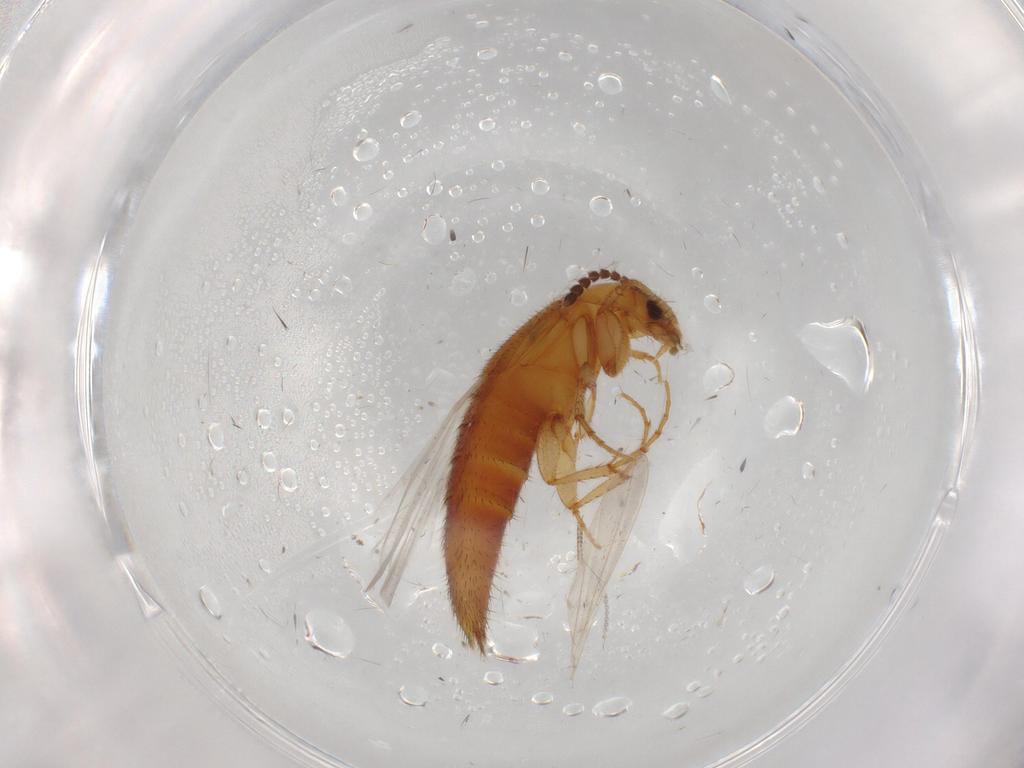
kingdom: Animalia
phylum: Arthropoda
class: Insecta
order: Coleoptera
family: Staphylinidae
